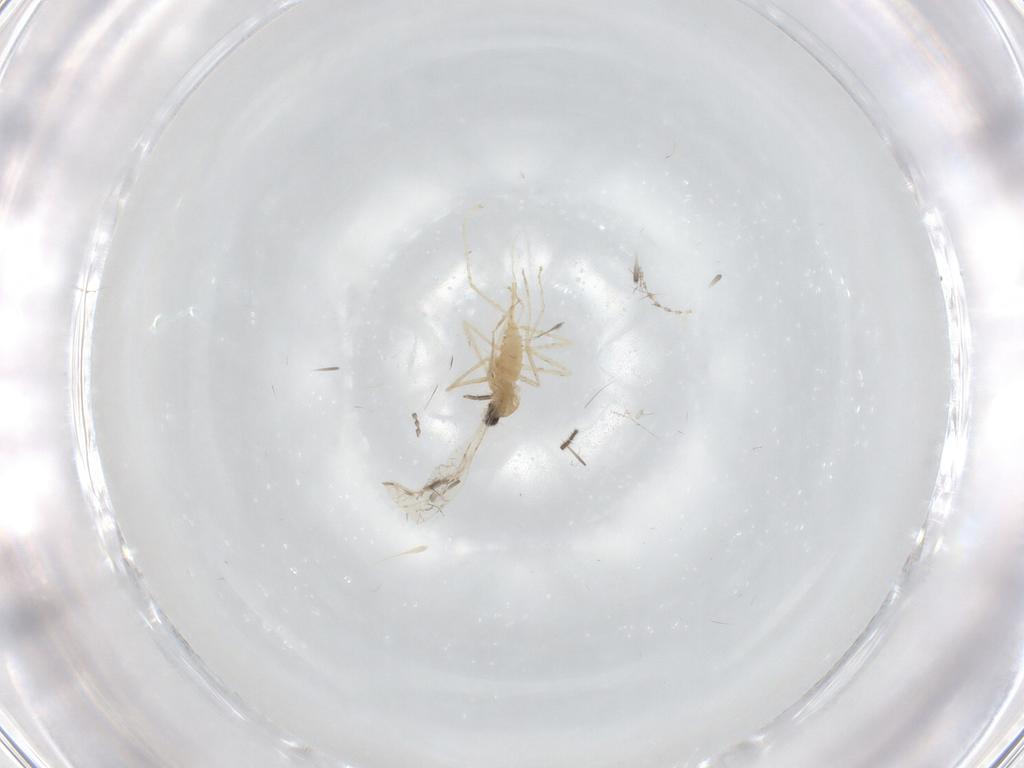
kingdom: Animalia
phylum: Arthropoda
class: Insecta
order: Diptera
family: Cecidomyiidae
